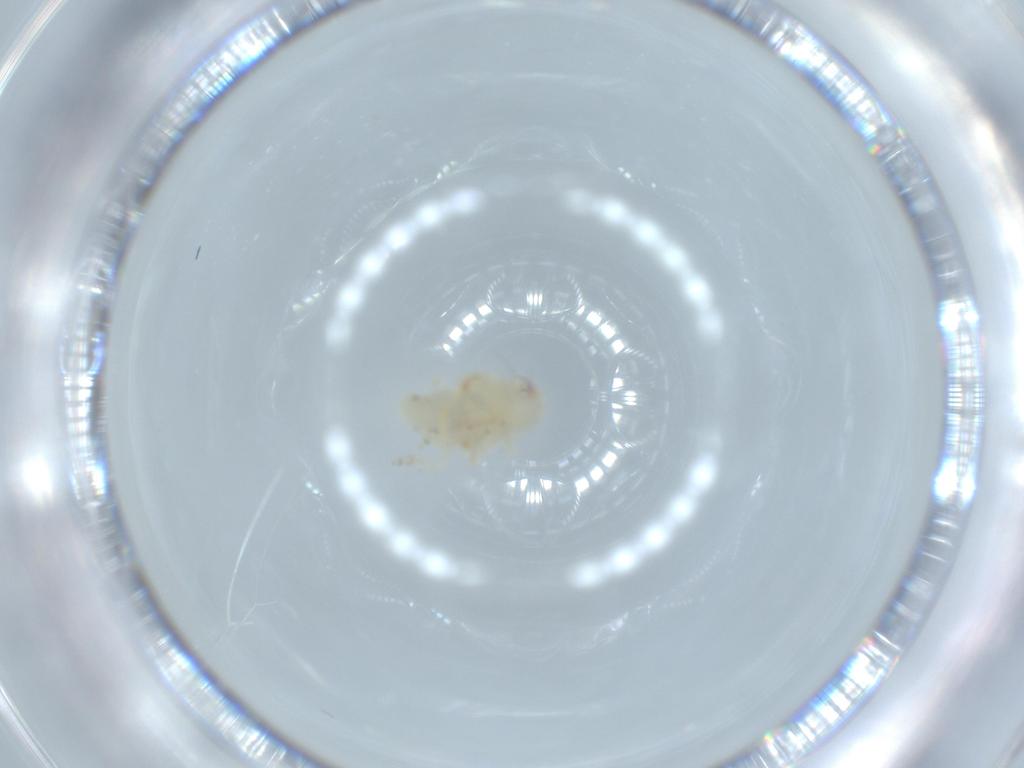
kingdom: Animalia
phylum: Arthropoda
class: Insecta
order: Hemiptera
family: Nogodinidae
